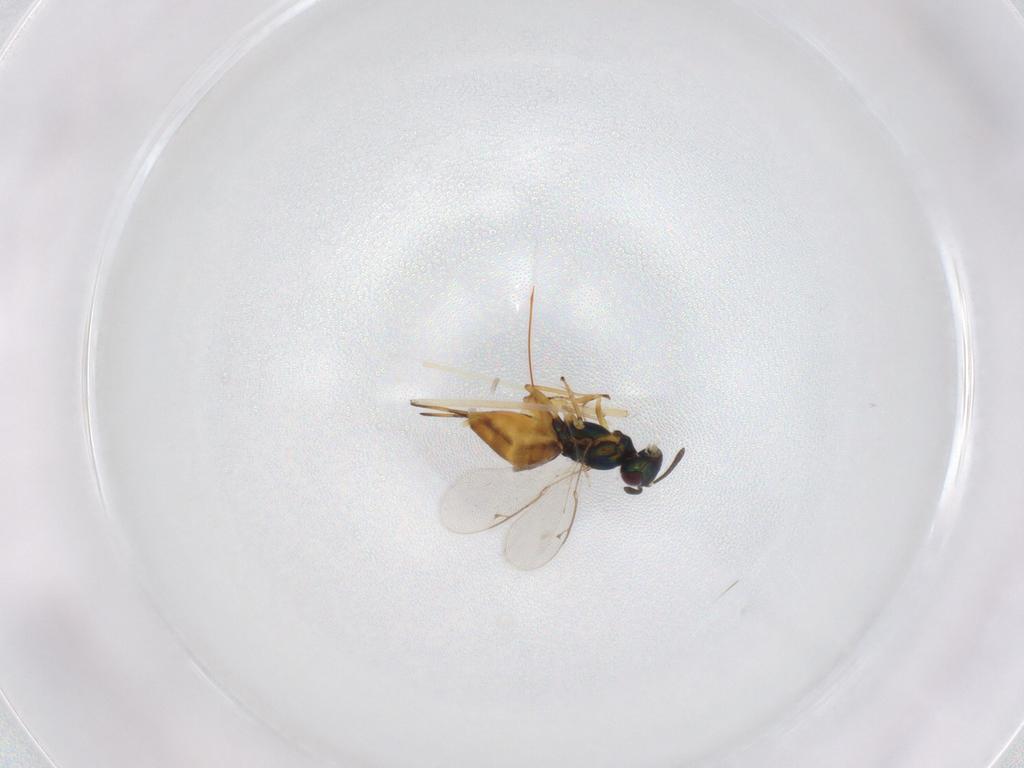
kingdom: Animalia
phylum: Arthropoda
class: Insecta
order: Hymenoptera
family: Eupelmidae
